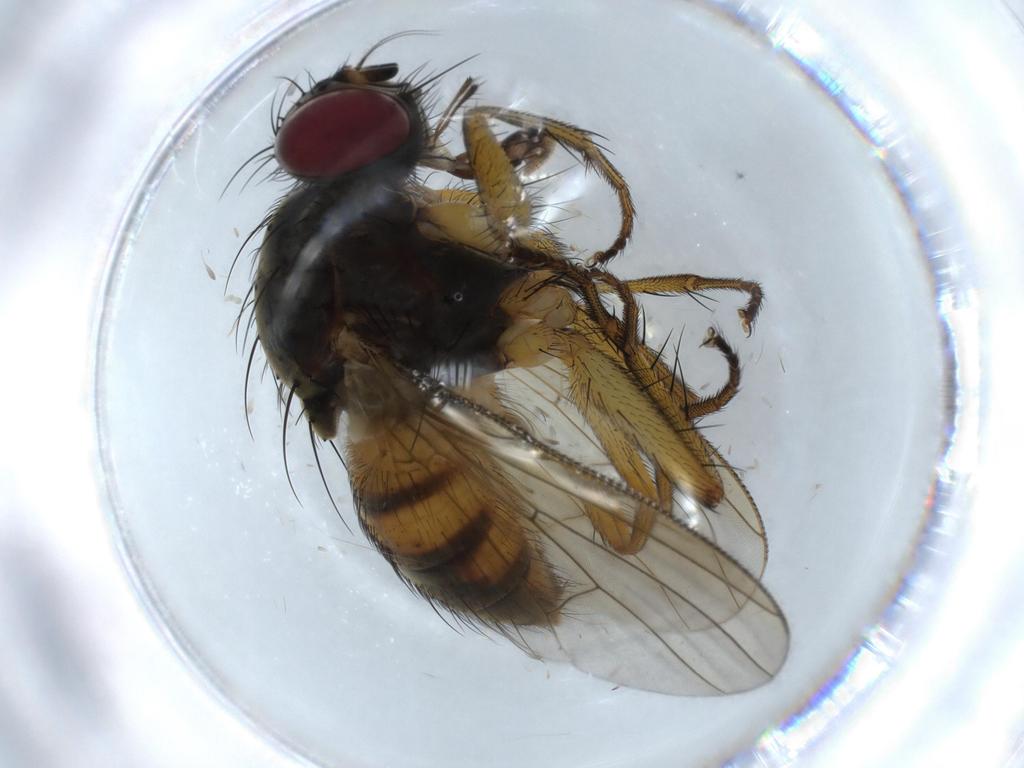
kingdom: Animalia
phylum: Arthropoda
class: Insecta
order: Diptera
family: Muscidae
